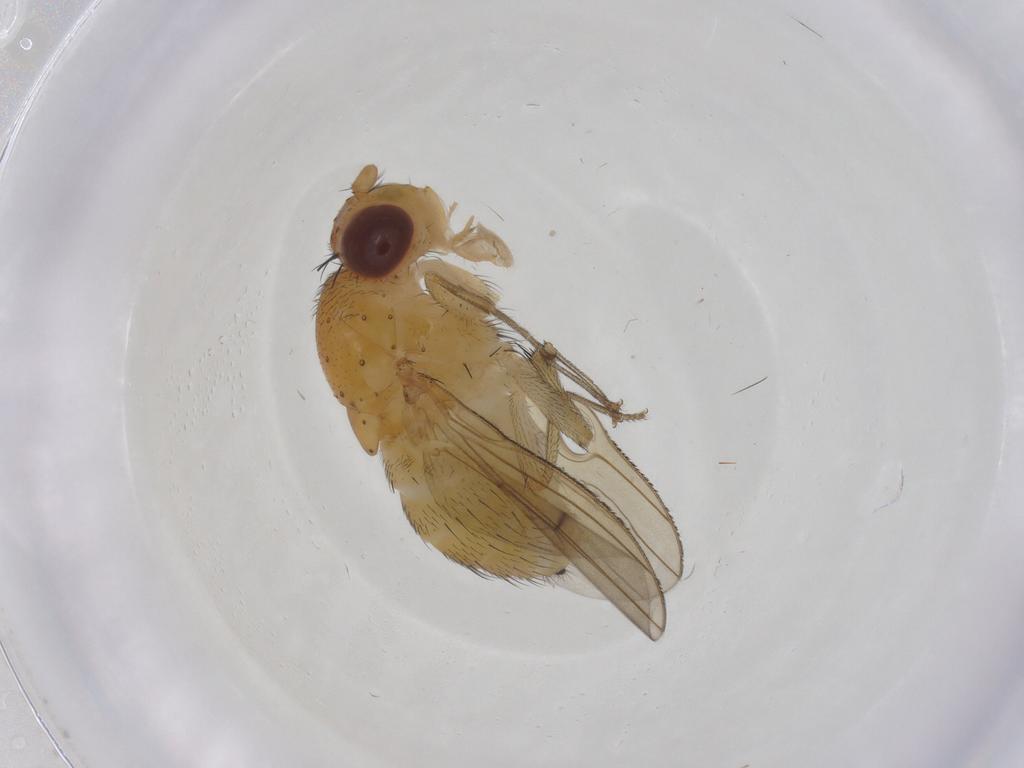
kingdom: Animalia
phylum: Arthropoda
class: Insecta
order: Diptera
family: Lauxaniidae
